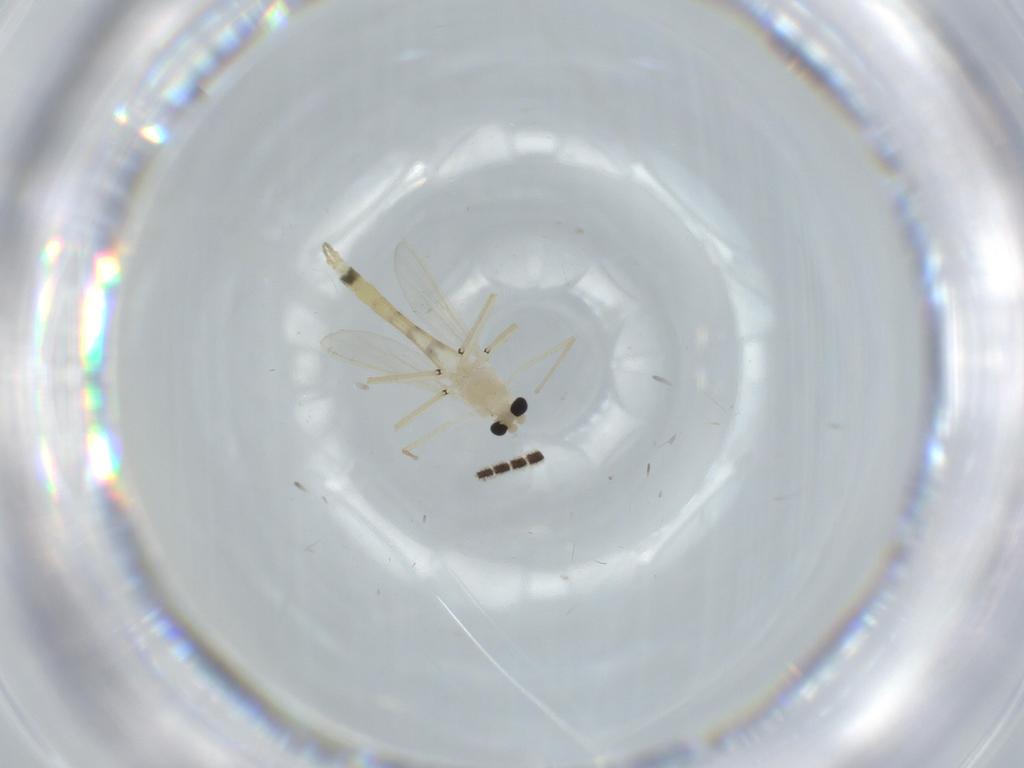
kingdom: Animalia
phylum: Arthropoda
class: Insecta
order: Diptera
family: Chironomidae
